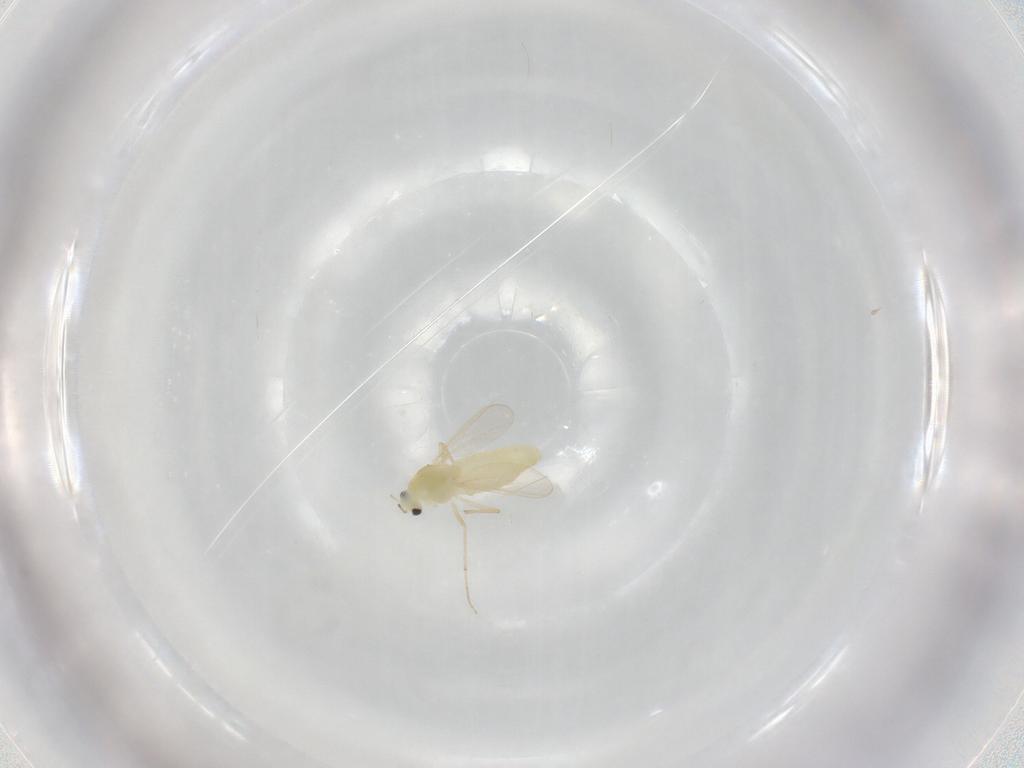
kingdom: Animalia
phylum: Arthropoda
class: Insecta
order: Diptera
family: Chironomidae
